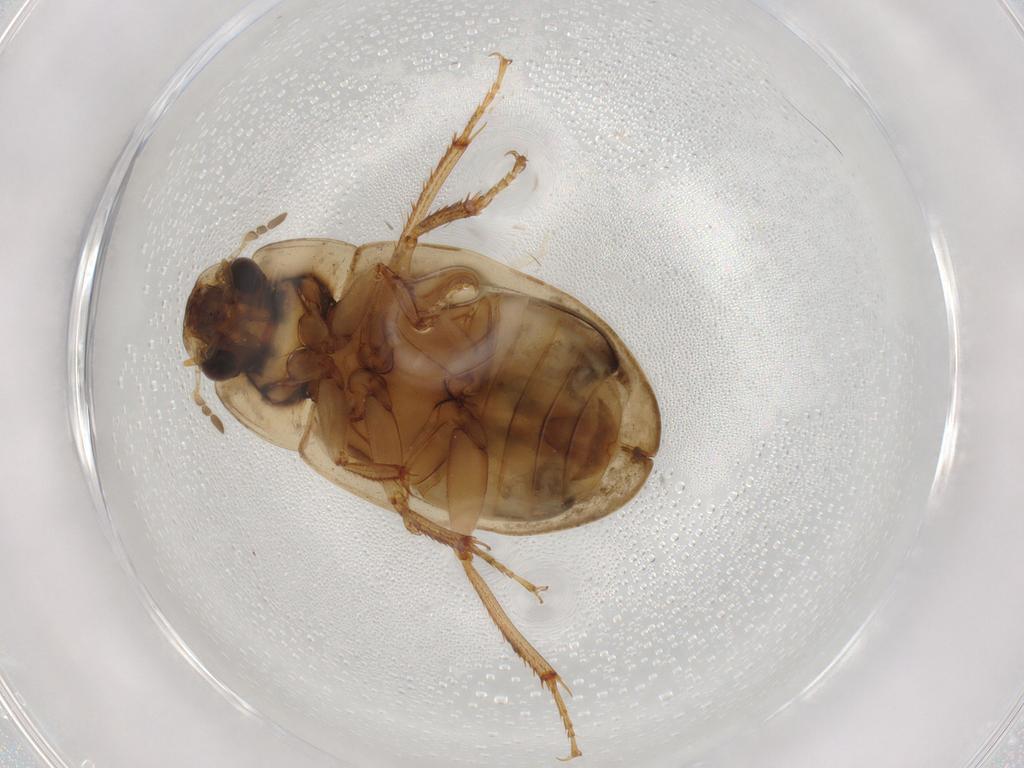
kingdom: Animalia
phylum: Arthropoda
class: Insecta
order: Coleoptera
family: Hydrophilidae
